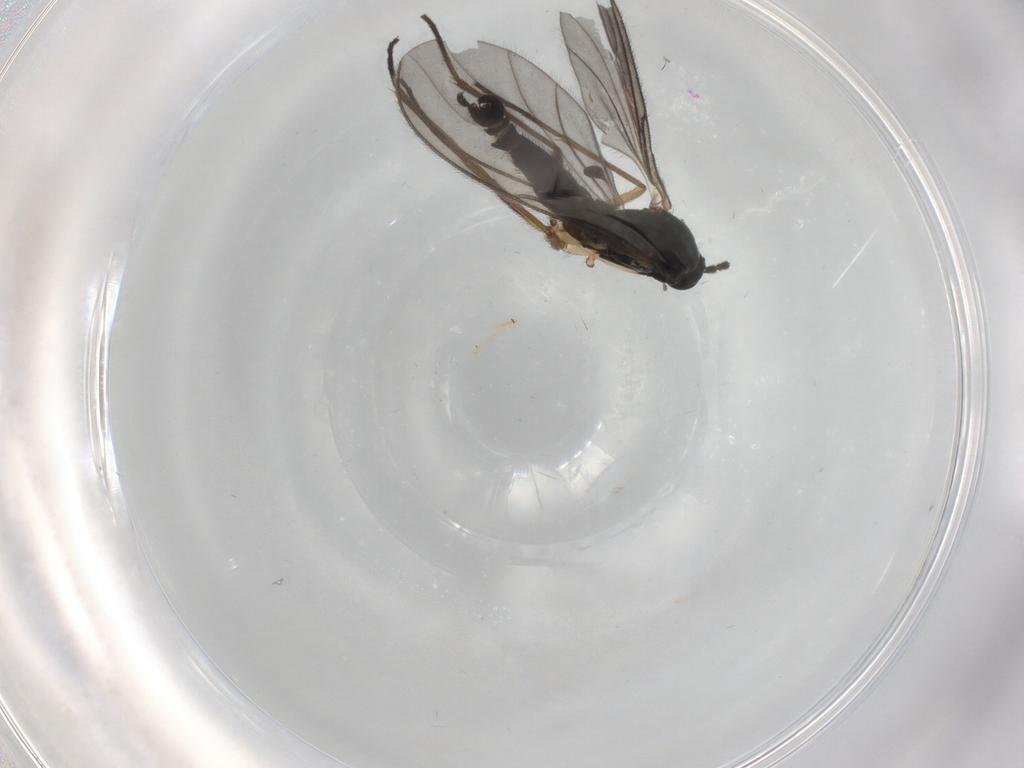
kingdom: Animalia
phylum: Arthropoda
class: Insecta
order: Diptera
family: Sciaridae
